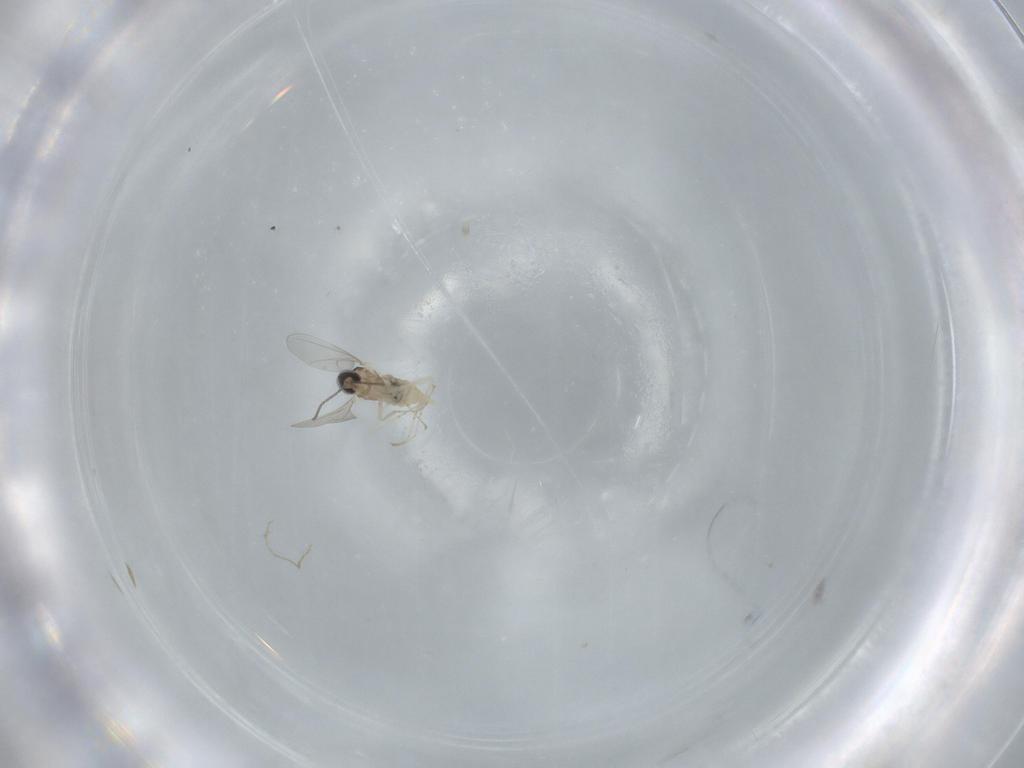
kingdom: Animalia
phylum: Arthropoda
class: Insecta
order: Diptera
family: Cecidomyiidae
